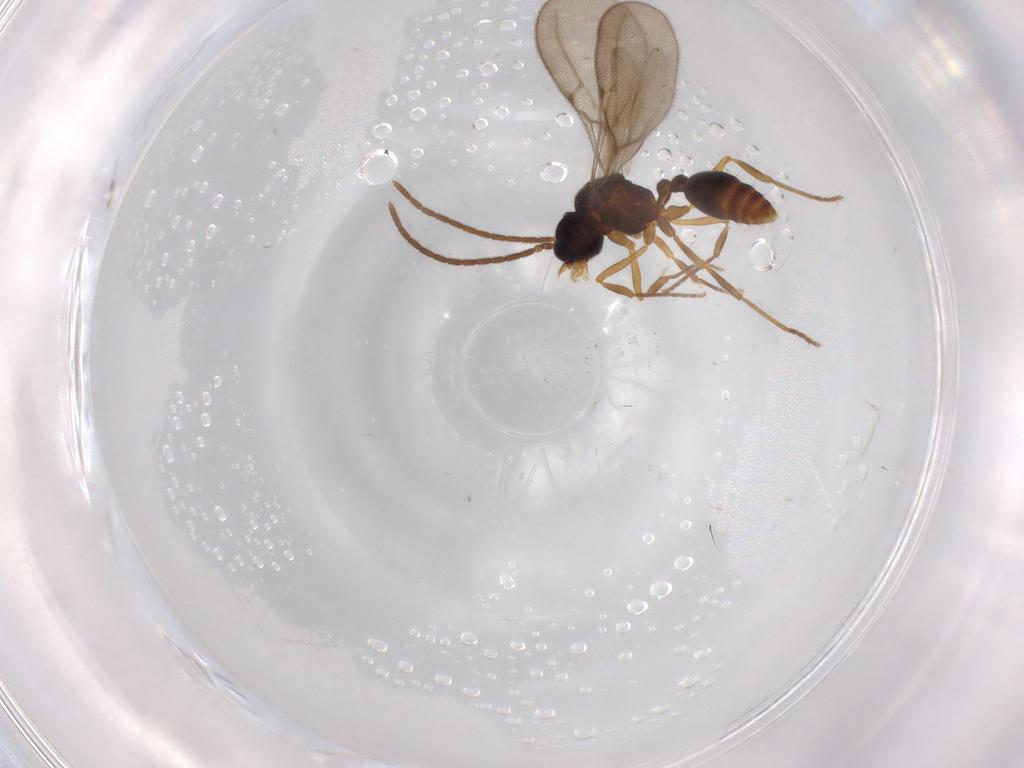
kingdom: Animalia
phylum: Arthropoda
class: Insecta
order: Hymenoptera
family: Formicidae
